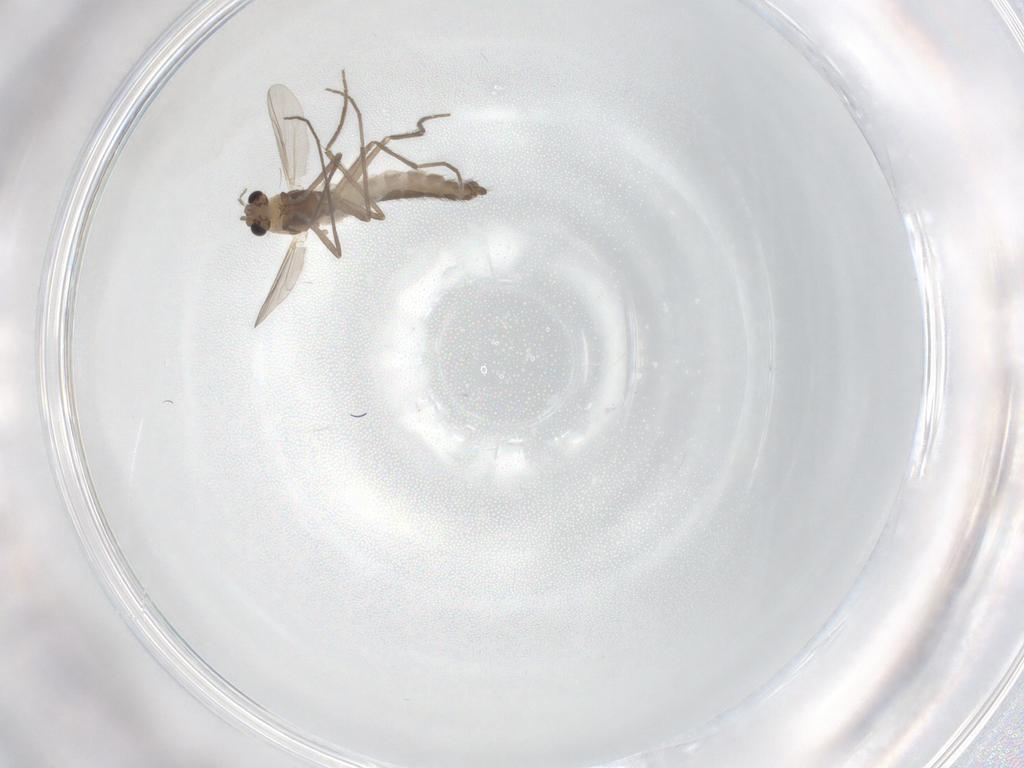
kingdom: Animalia
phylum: Arthropoda
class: Insecta
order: Diptera
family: Chironomidae
